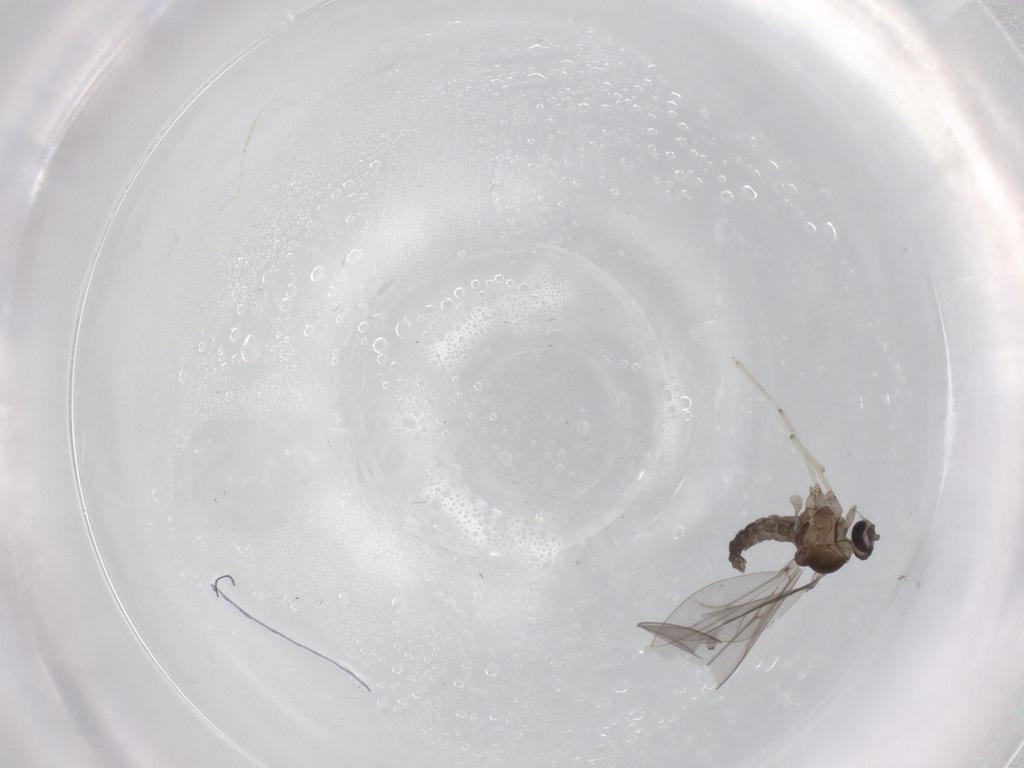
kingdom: Animalia
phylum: Arthropoda
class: Insecta
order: Diptera
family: Cecidomyiidae
